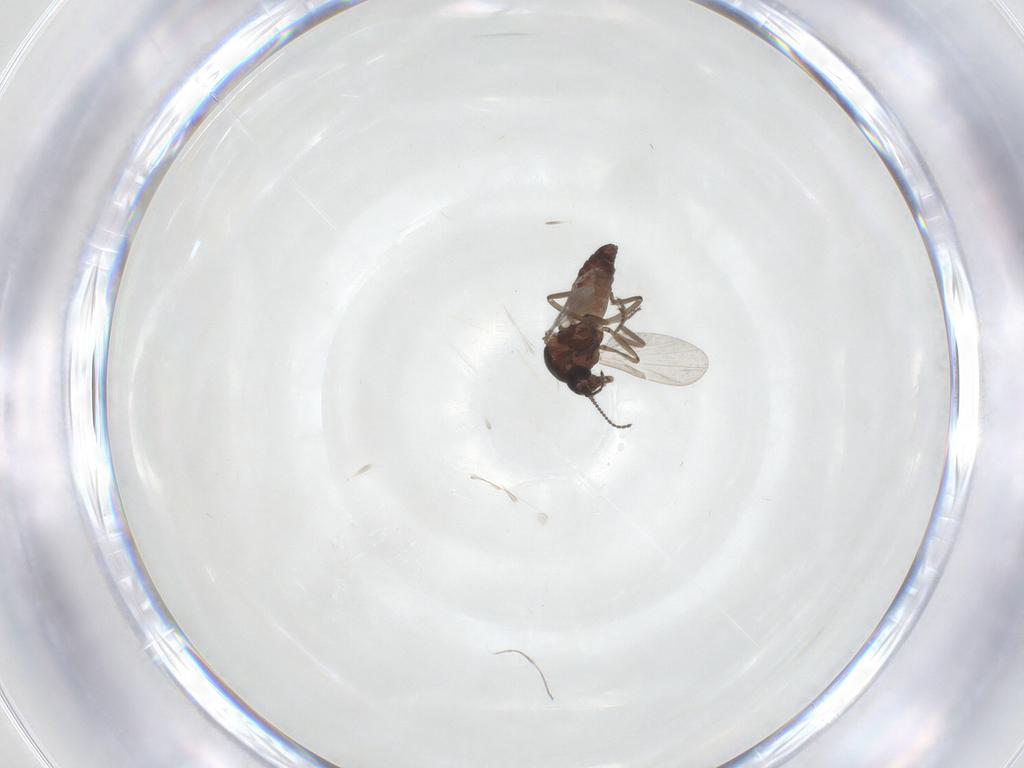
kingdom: Animalia
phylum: Arthropoda
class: Insecta
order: Diptera
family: Ceratopogonidae
